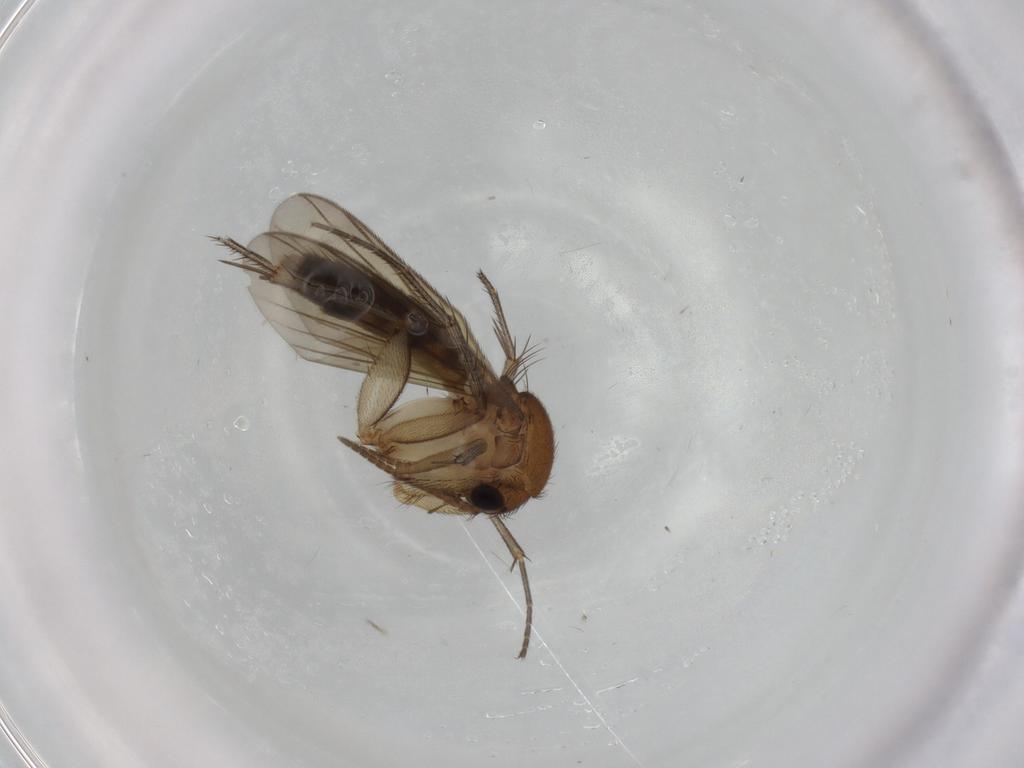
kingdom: Animalia
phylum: Arthropoda
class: Insecta
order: Diptera
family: Mycetophilidae
